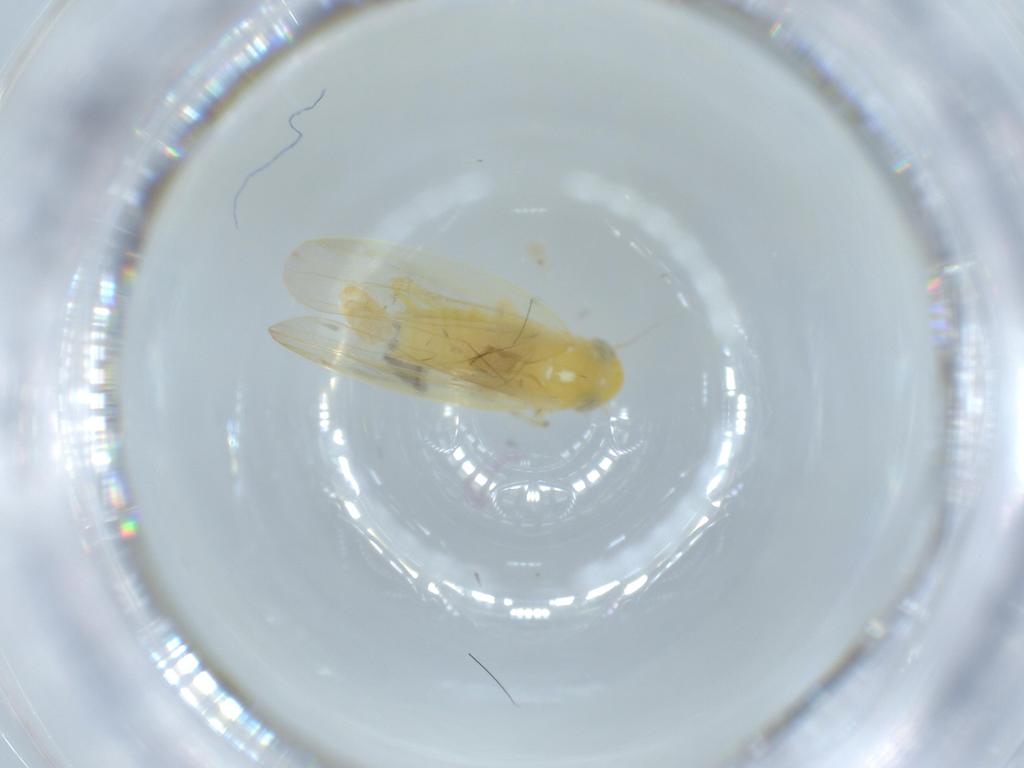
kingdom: Animalia
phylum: Arthropoda
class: Insecta
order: Hemiptera
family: Cicadellidae
